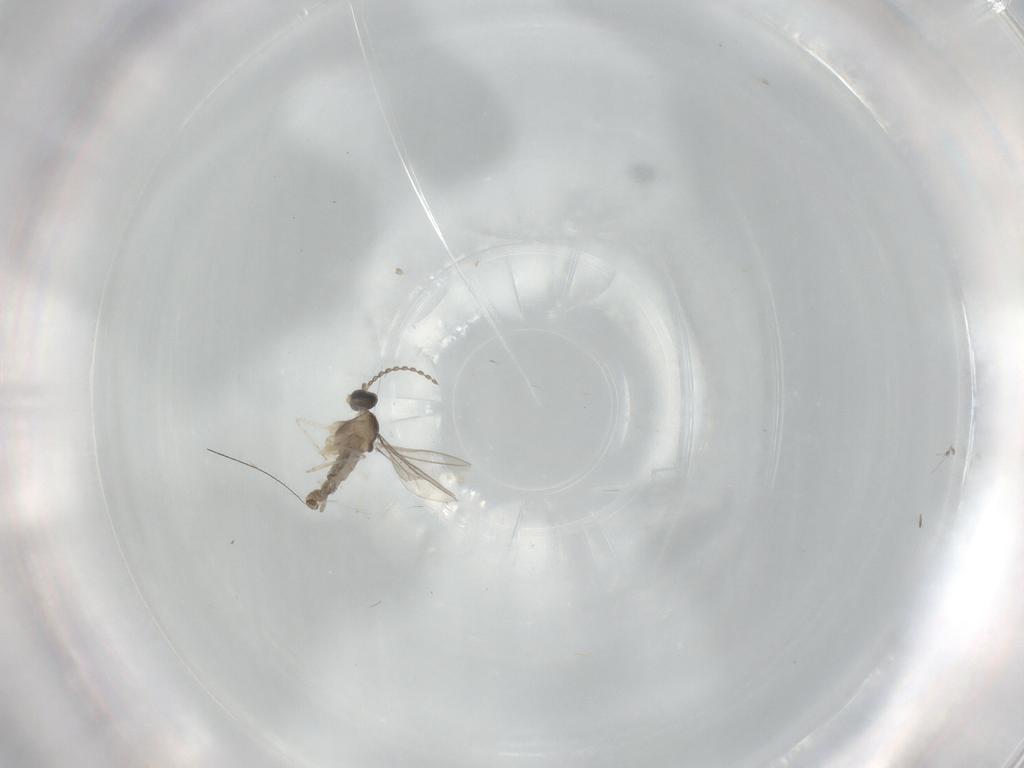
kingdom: Animalia
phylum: Arthropoda
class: Insecta
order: Diptera
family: Cecidomyiidae
